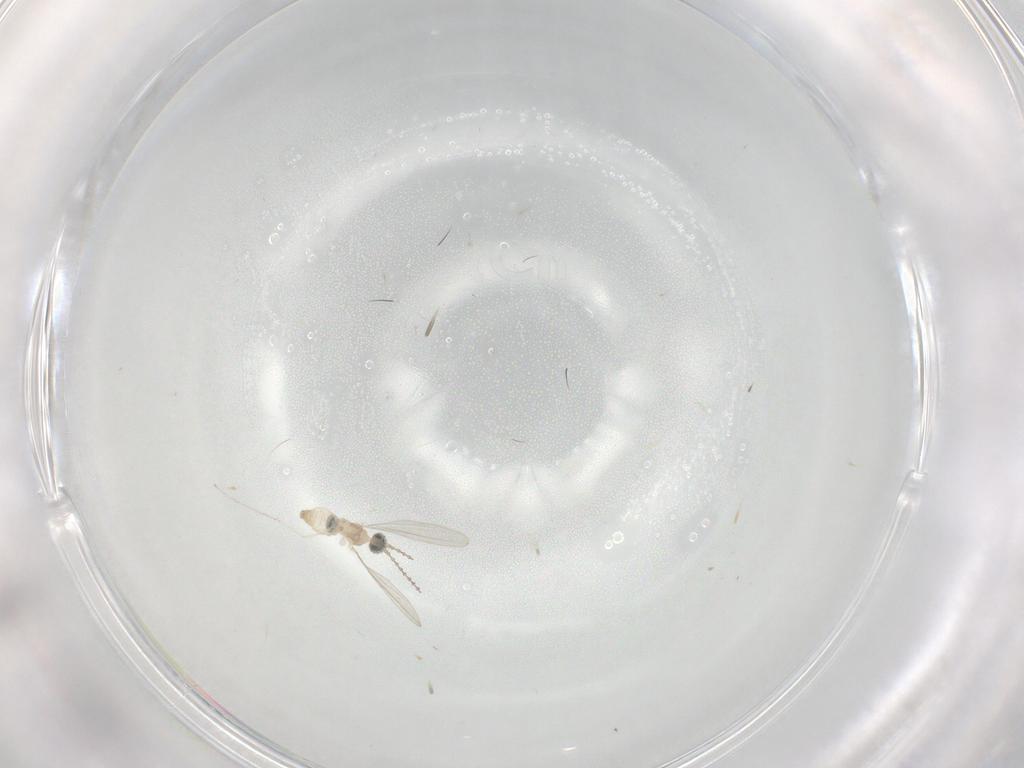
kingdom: Animalia
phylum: Arthropoda
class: Insecta
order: Diptera
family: Cecidomyiidae
